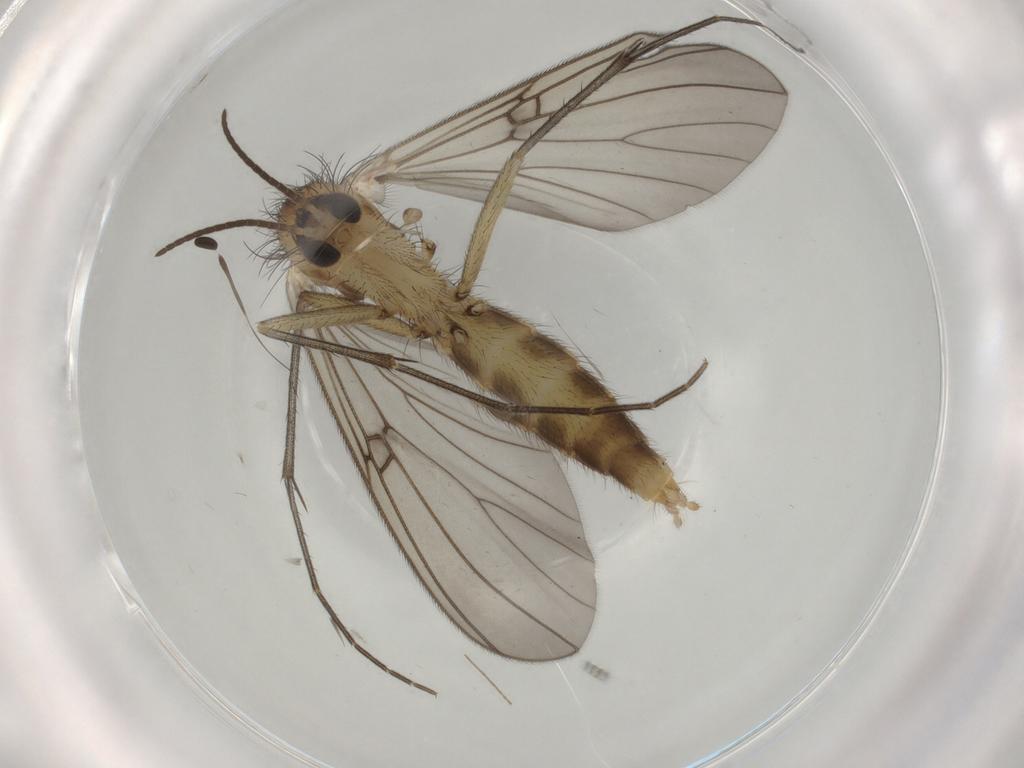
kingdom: Animalia
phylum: Arthropoda
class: Insecta
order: Diptera
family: Mycetophilidae
